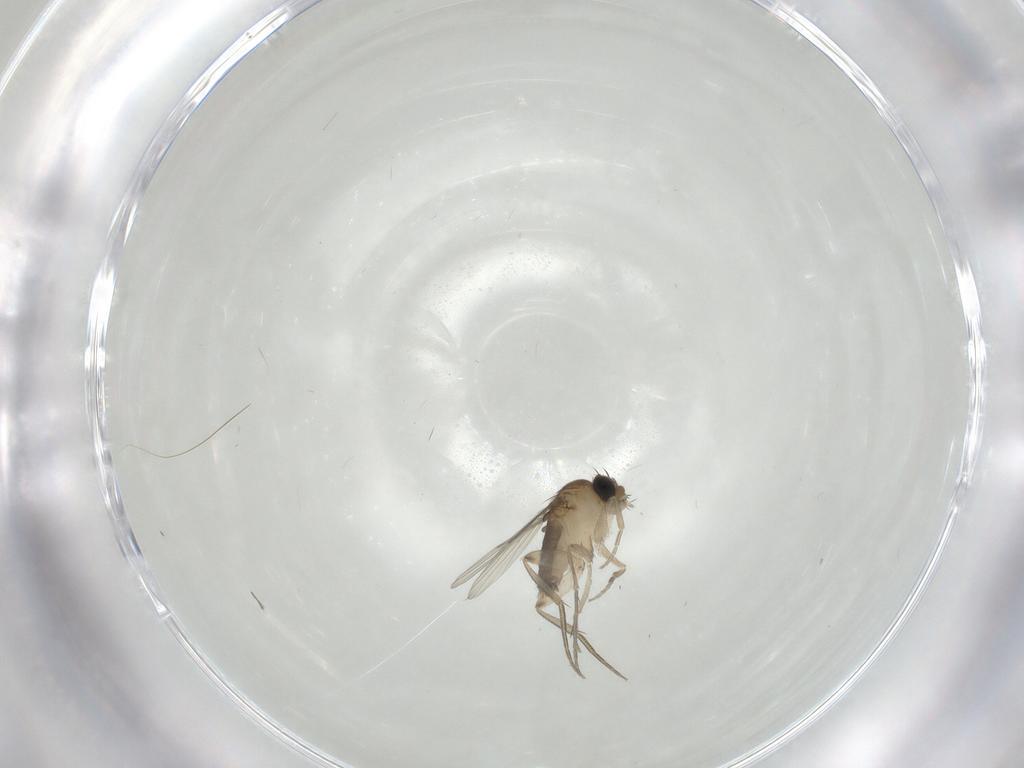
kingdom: Animalia
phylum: Arthropoda
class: Insecta
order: Diptera
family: Phoridae
